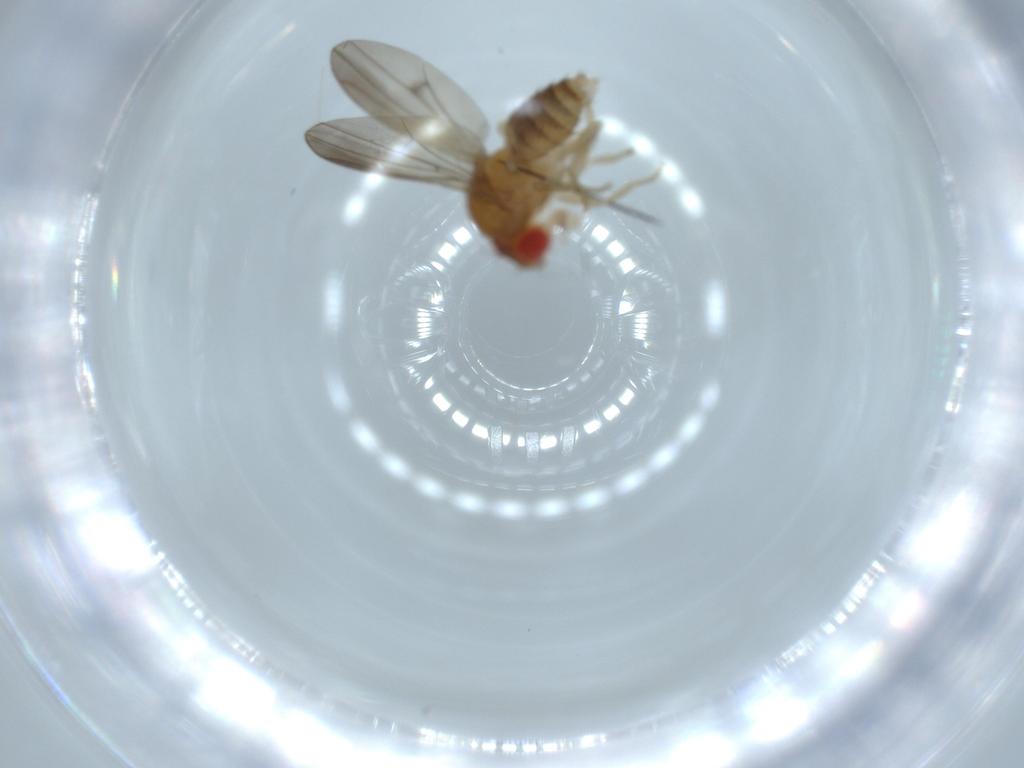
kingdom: Animalia
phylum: Arthropoda
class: Insecta
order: Diptera
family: Drosophilidae
